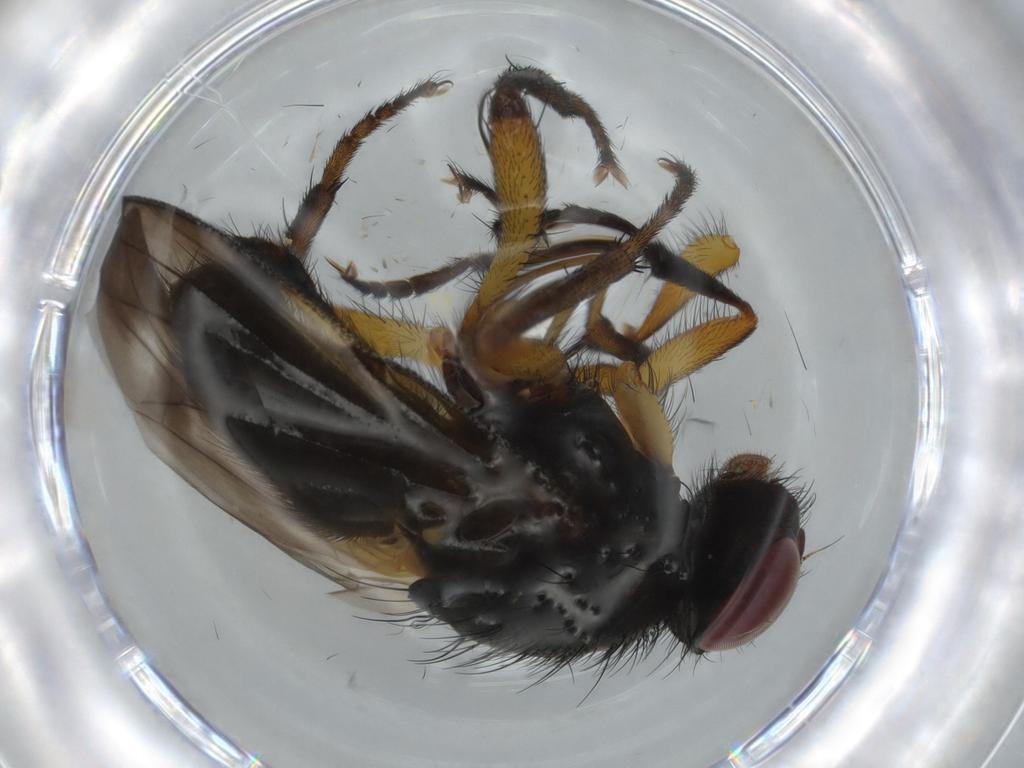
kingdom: Animalia
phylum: Arthropoda
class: Insecta
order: Diptera
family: Calliphoridae
